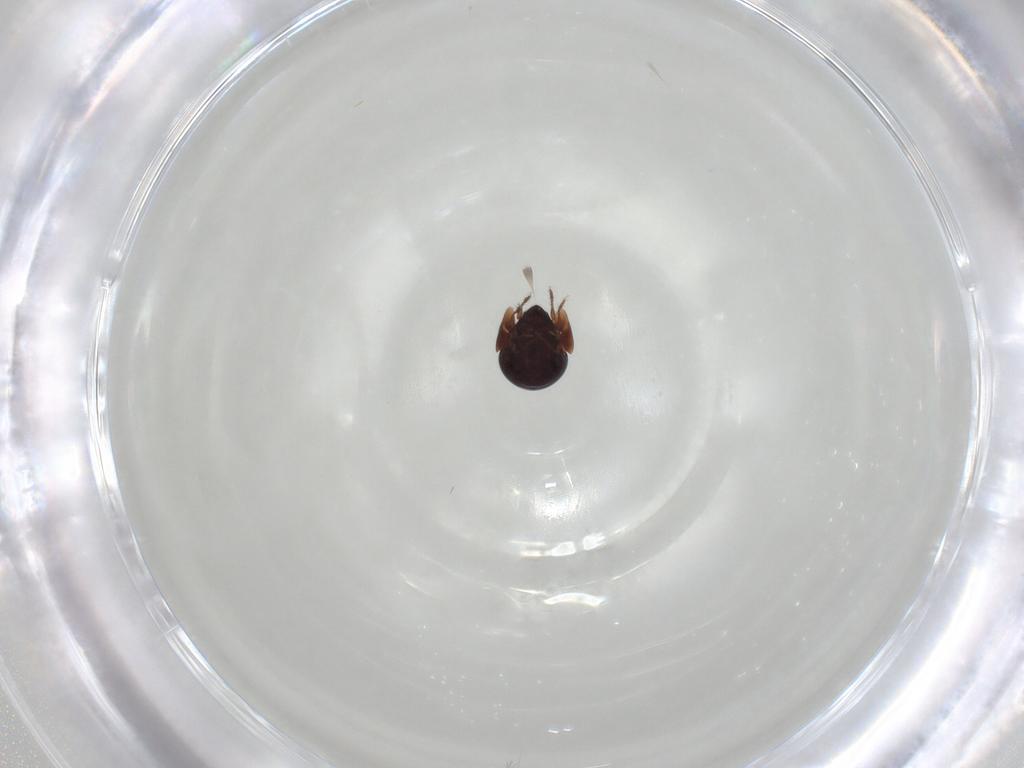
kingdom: Animalia
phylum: Arthropoda
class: Arachnida
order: Sarcoptiformes
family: Galumnidae
